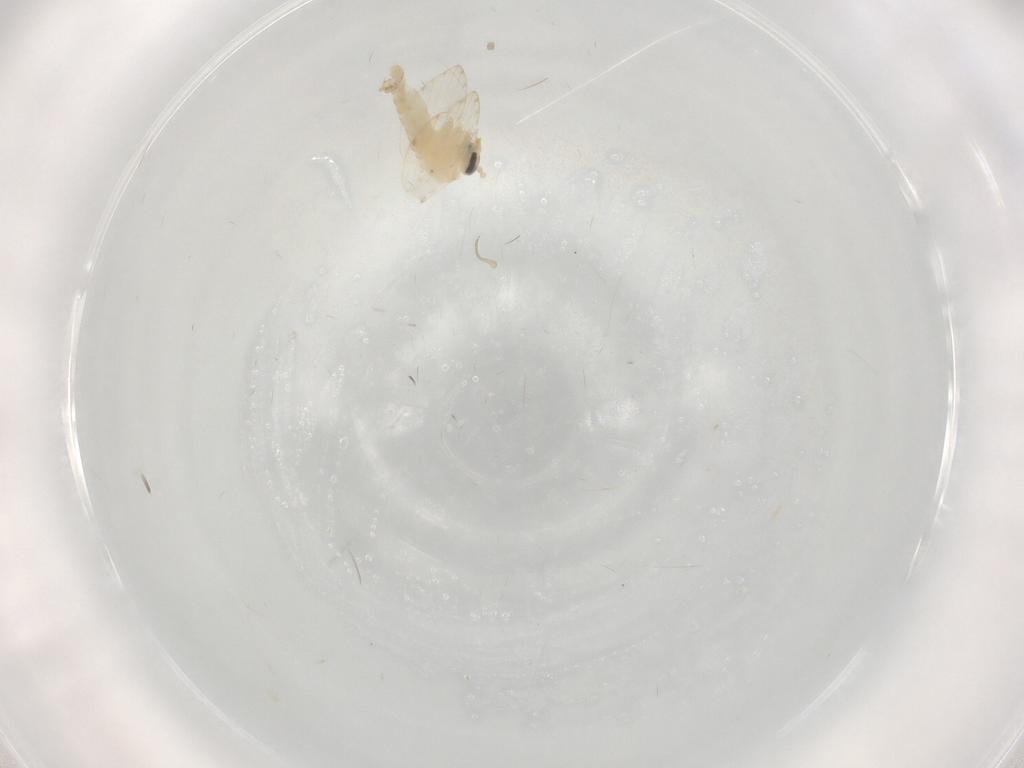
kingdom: Animalia
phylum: Arthropoda
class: Insecta
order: Diptera
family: Psychodidae
